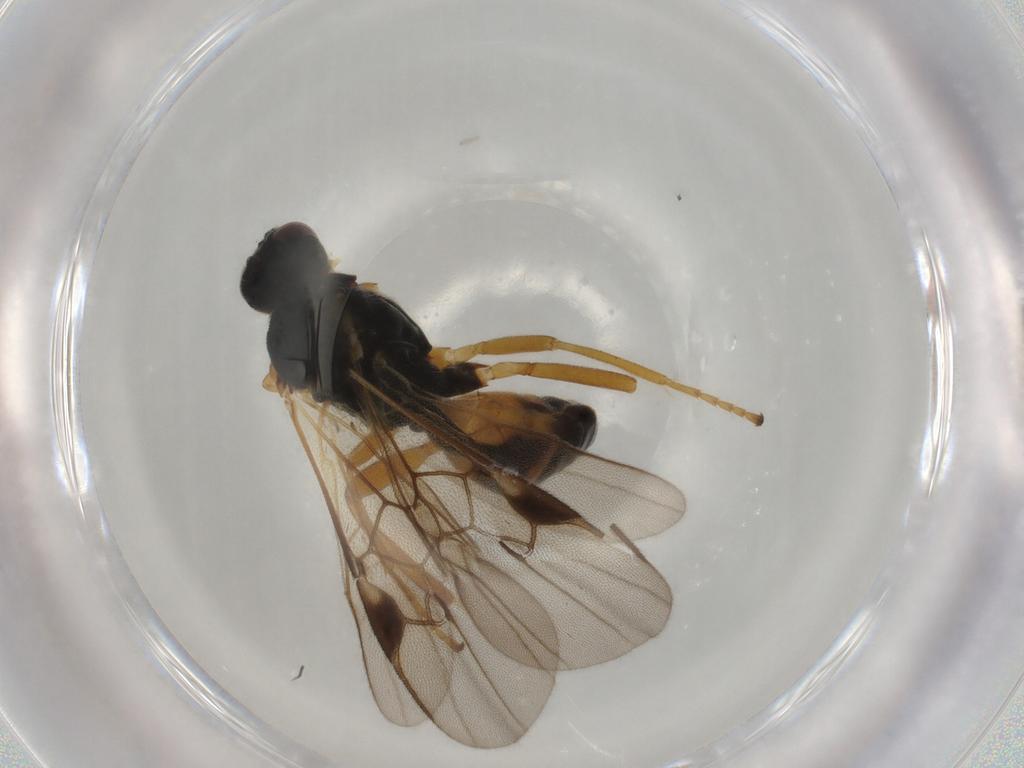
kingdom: Animalia
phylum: Arthropoda
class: Insecta
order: Hymenoptera
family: Braconidae
